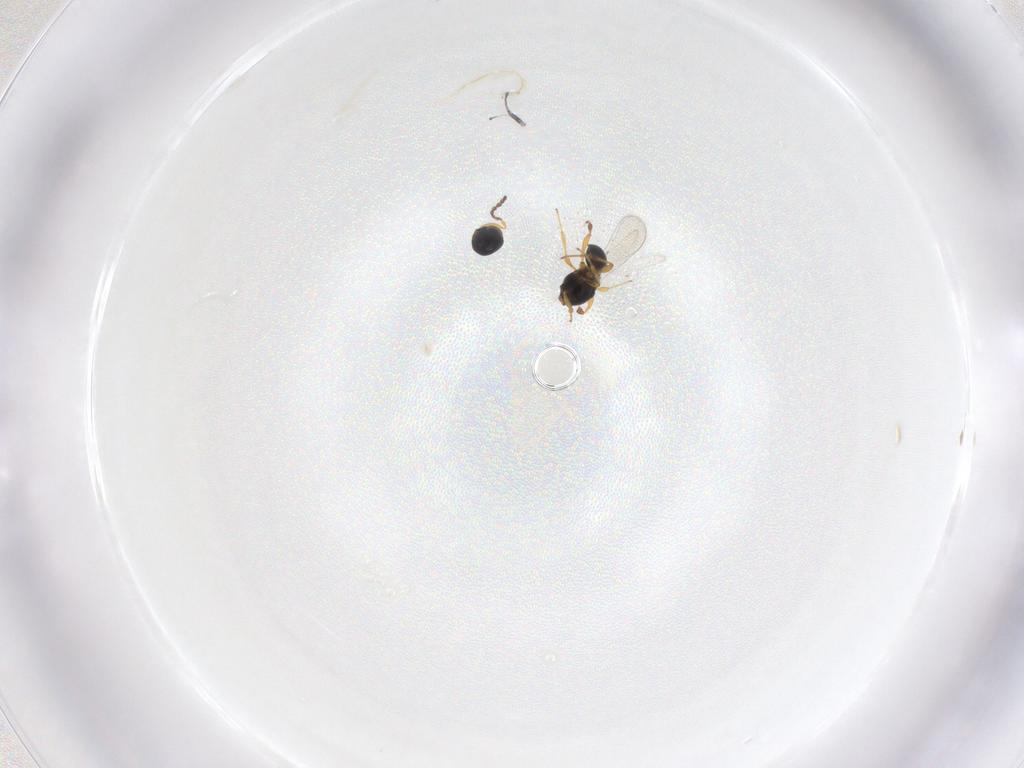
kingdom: Animalia
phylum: Arthropoda
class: Insecta
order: Hymenoptera
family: Platygastridae
